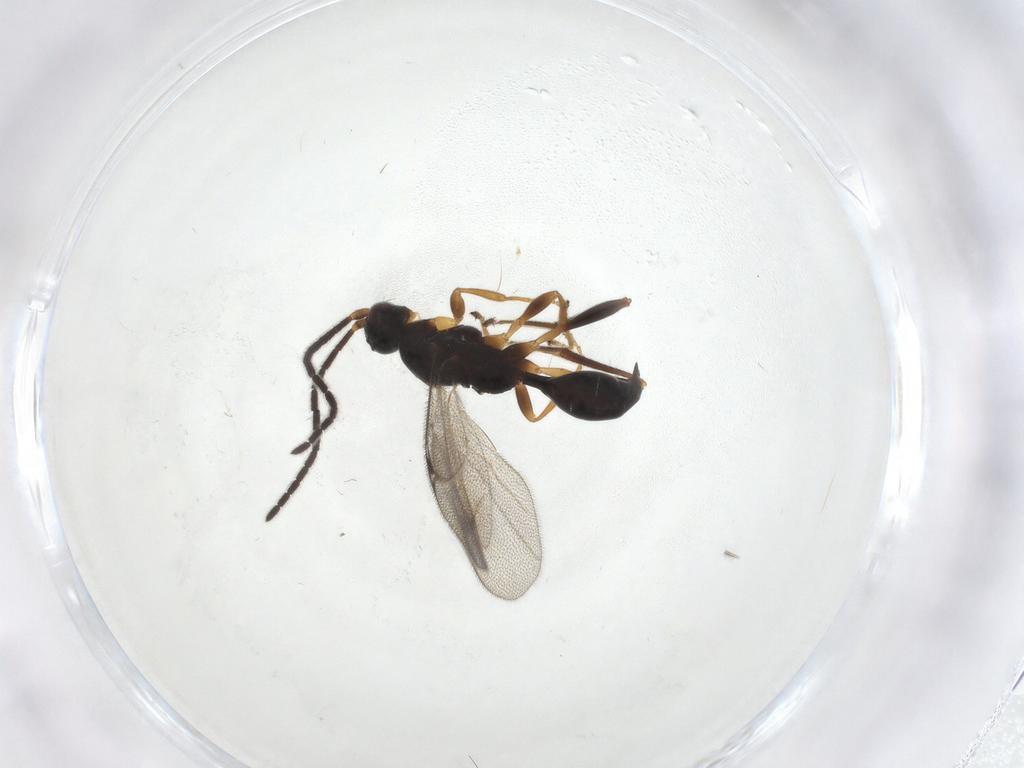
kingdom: Animalia
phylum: Arthropoda
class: Insecta
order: Hymenoptera
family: Proctotrupidae
